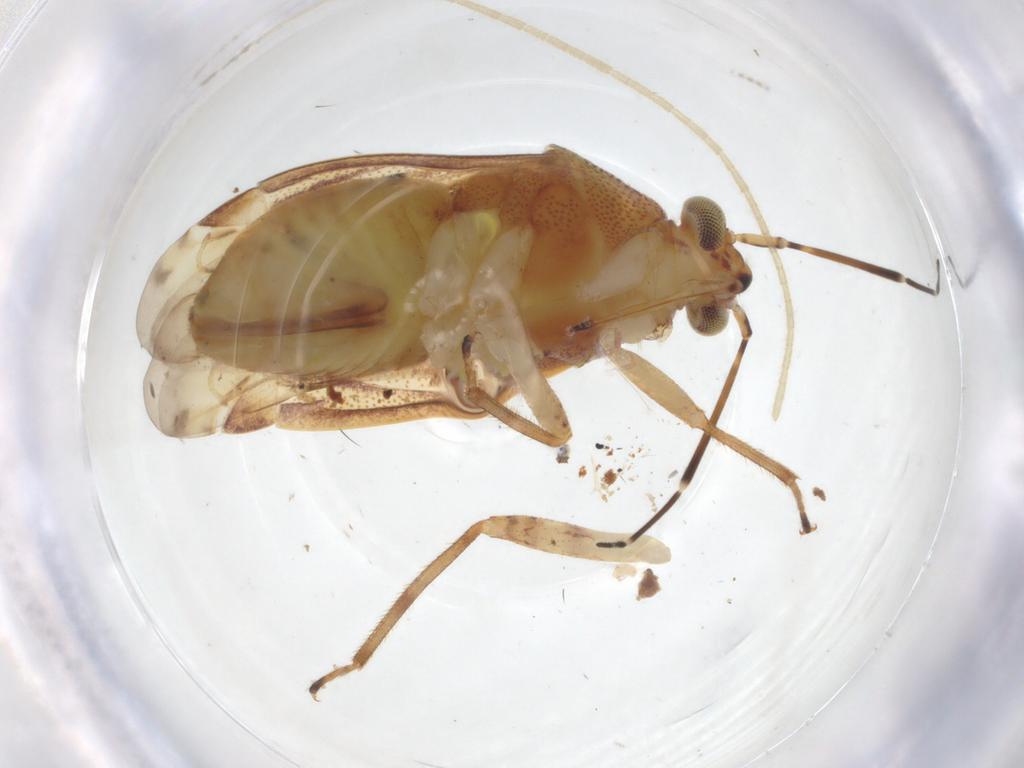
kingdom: Animalia
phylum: Arthropoda
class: Insecta
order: Hemiptera
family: Miridae
